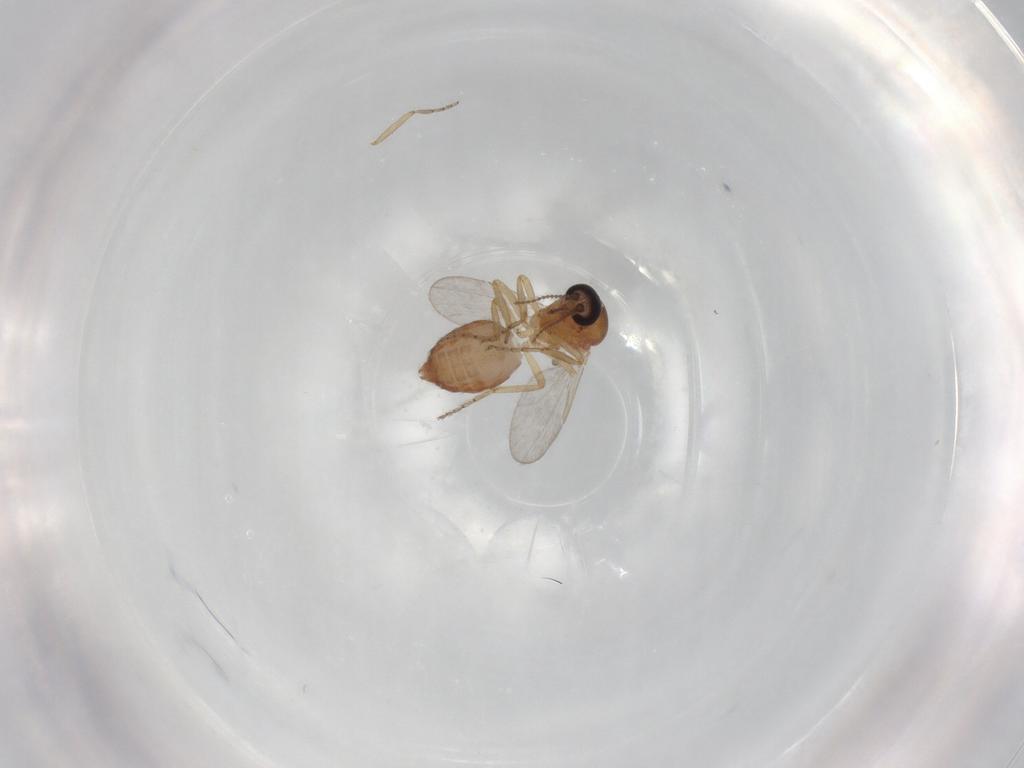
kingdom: Animalia
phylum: Arthropoda
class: Insecta
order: Diptera
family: Ceratopogonidae
